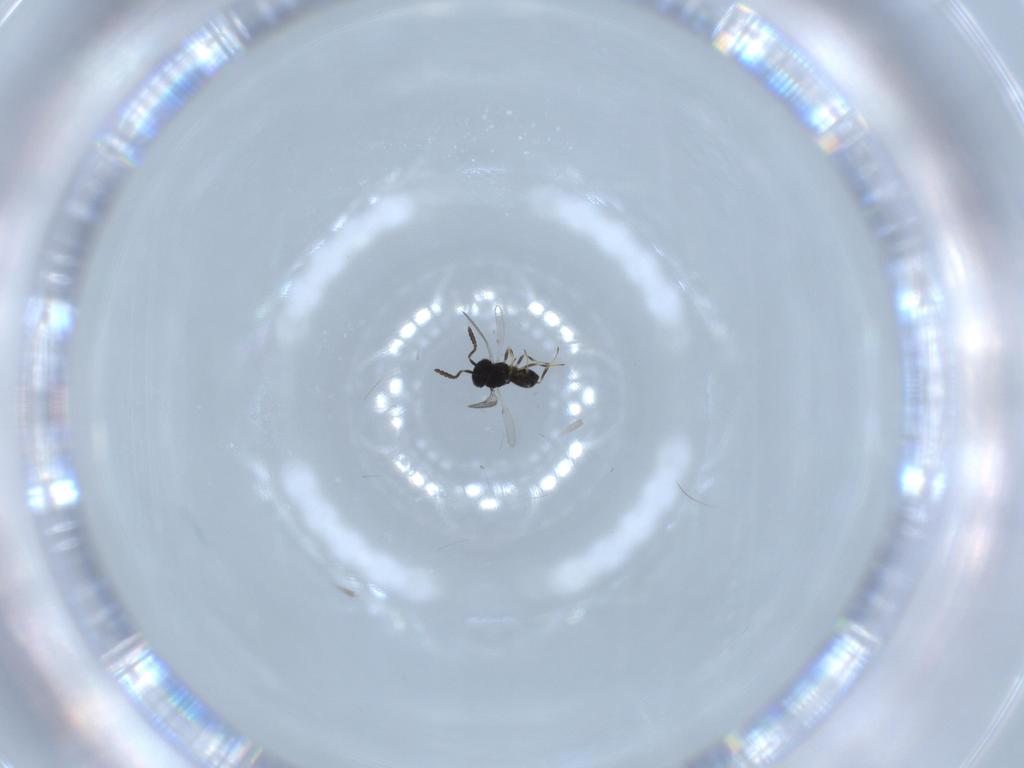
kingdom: Animalia
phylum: Arthropoda
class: Insecta
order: Hymenoptera
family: Scelionidae
